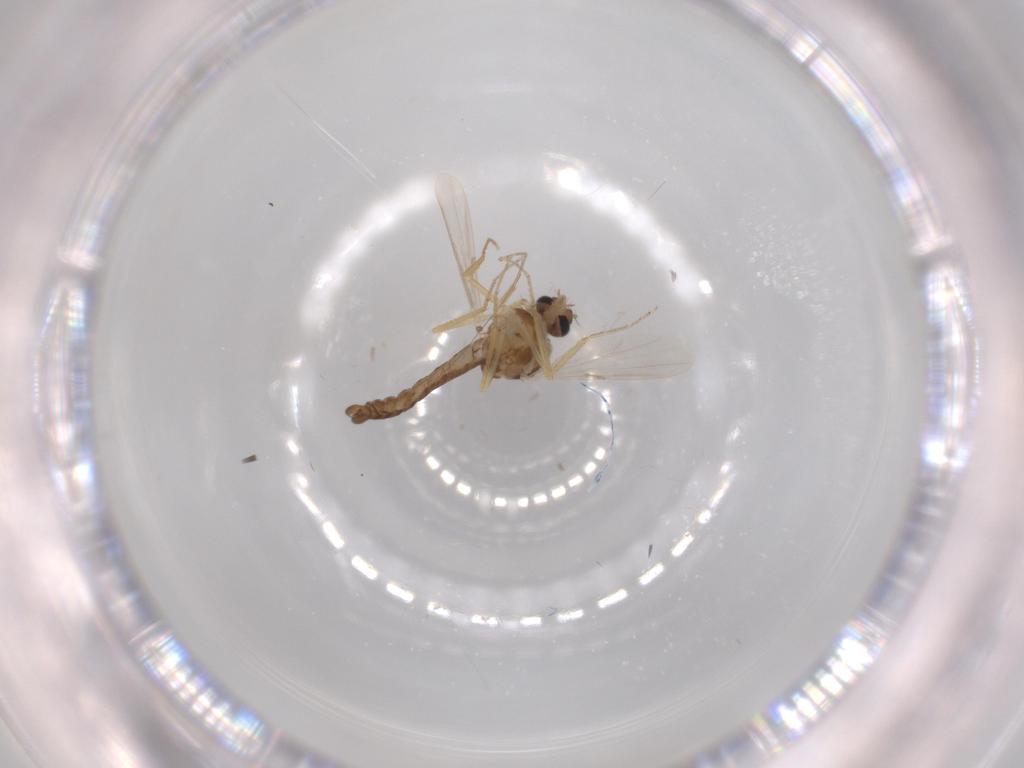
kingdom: Animalia
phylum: Arthropoda
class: Insecta
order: Diptera
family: Ceratopogonidae
